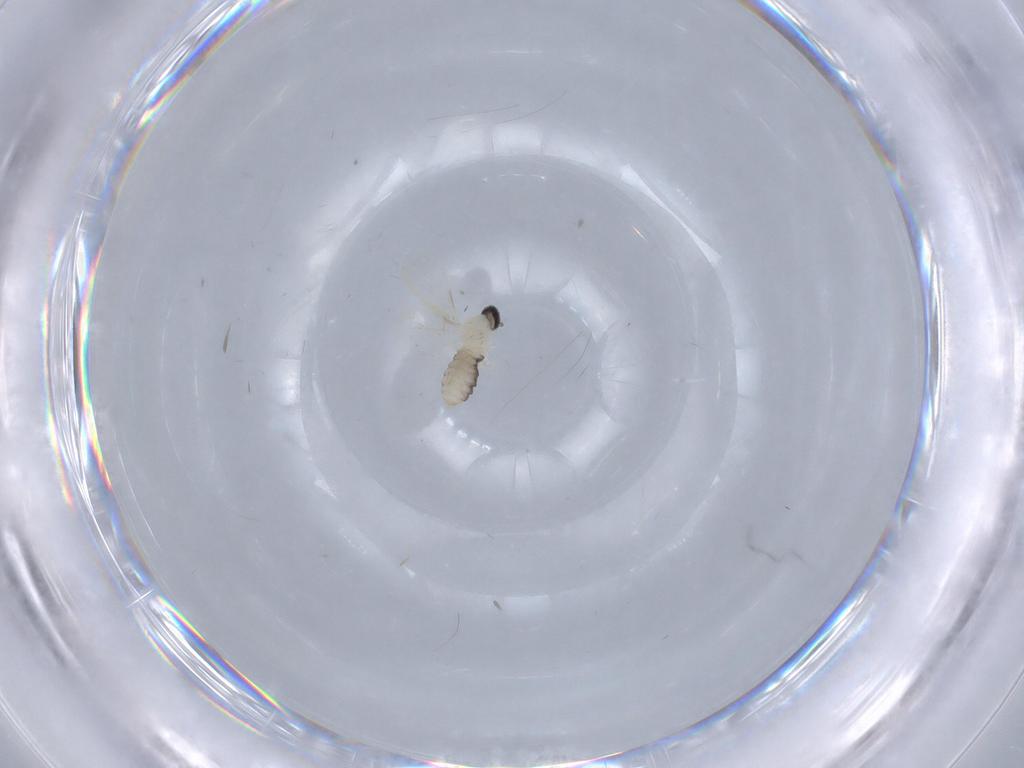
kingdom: Animalia
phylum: Arthropoda
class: Insecta
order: Diptera
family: Cecidomyiidae
